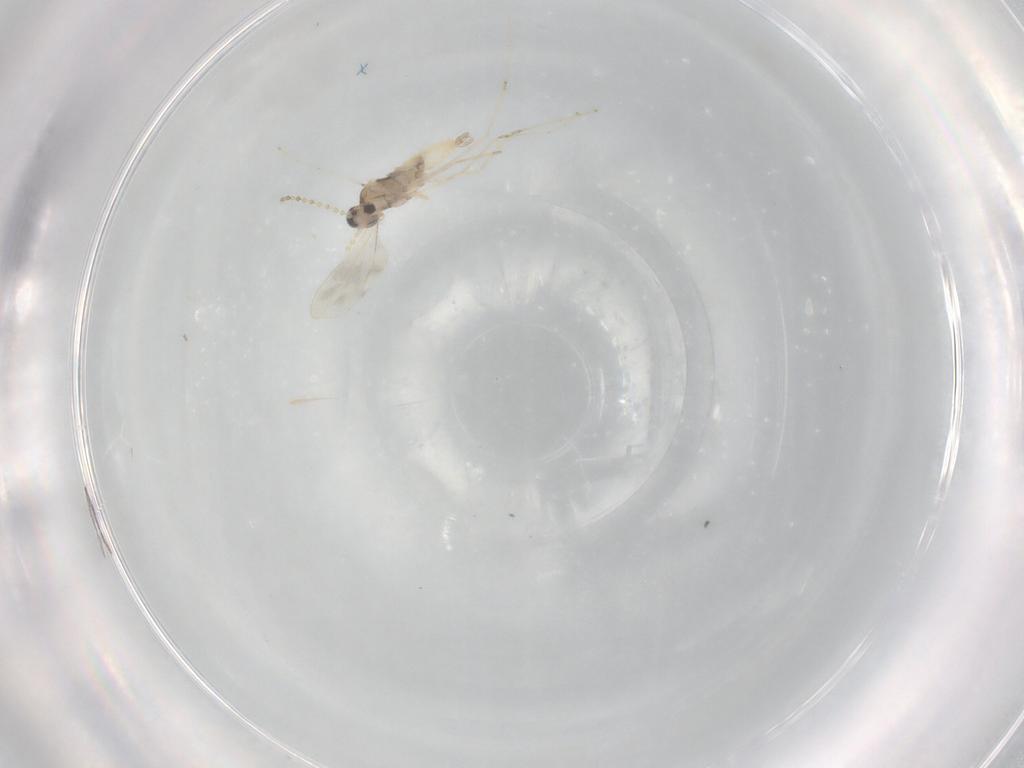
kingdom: Animalia
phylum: Arthropoda
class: Insecta
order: Diptera
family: Cecidomyiidae
